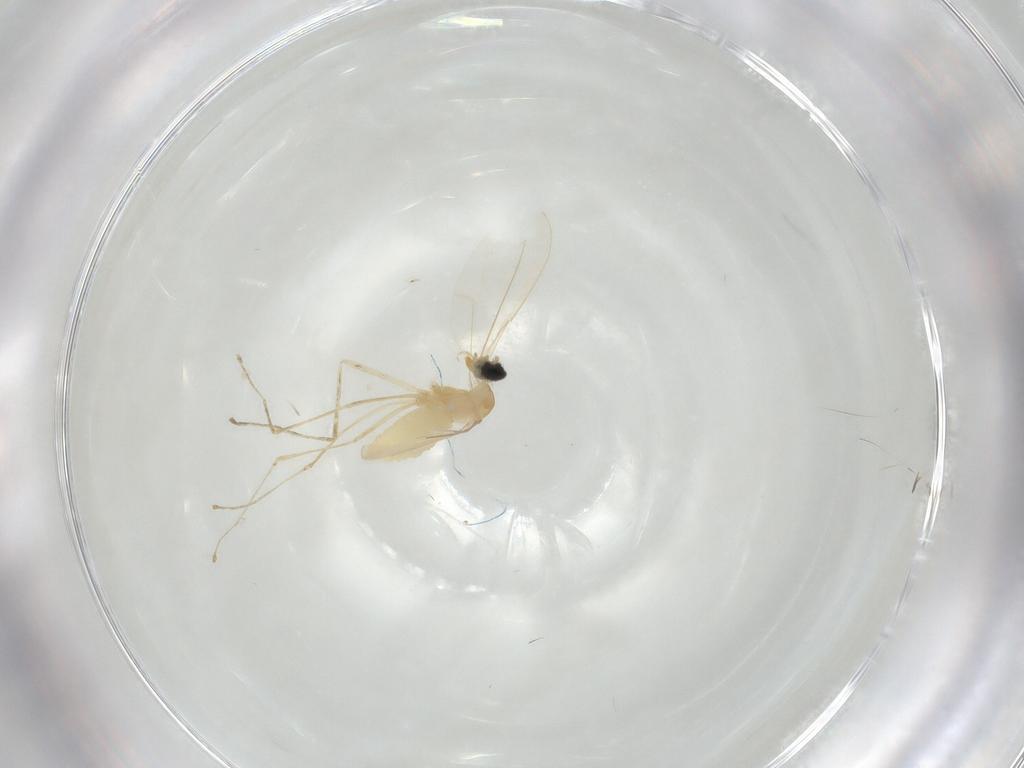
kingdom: Animalia
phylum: Arthropoda
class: Insecta
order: Diptera
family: Cecidomyiidae
